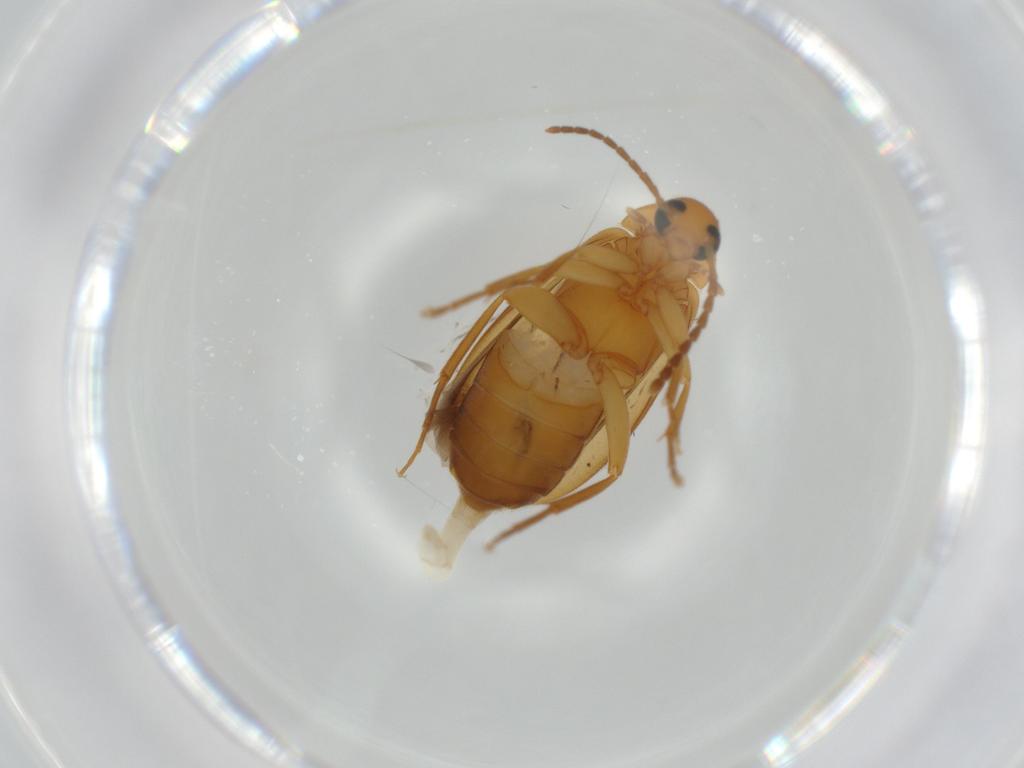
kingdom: Animalia
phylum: Arthropoda
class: Insecta
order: Coleoptera
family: Scraptiidae
